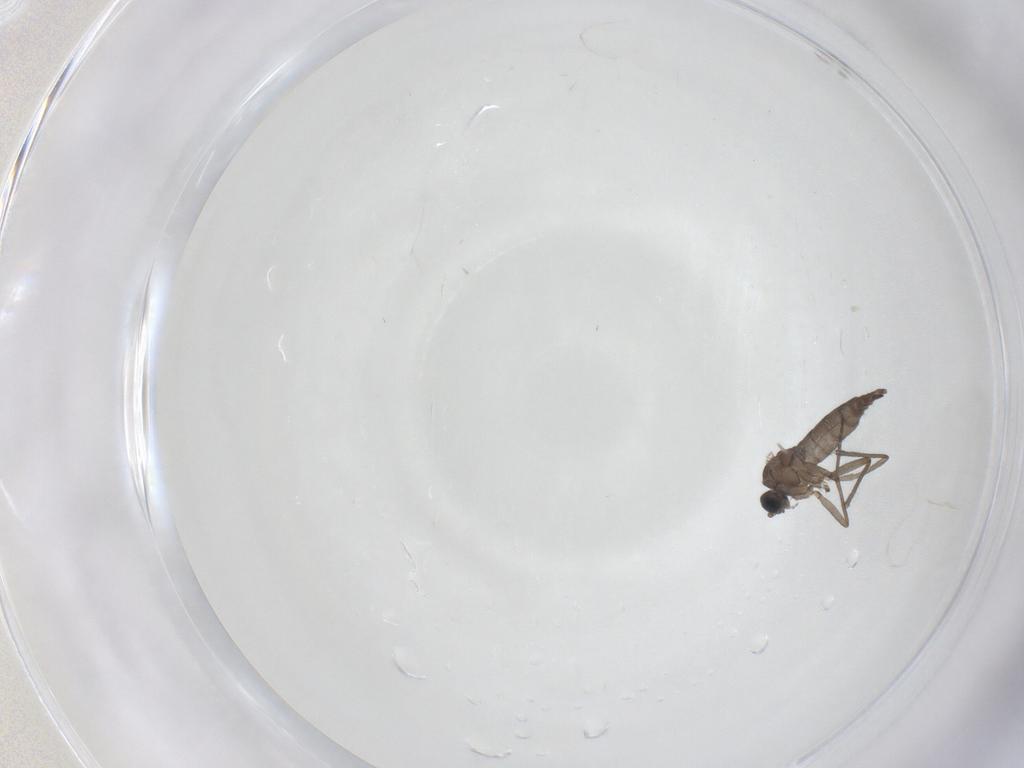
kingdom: Animalia
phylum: Arthropoda
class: Insecta
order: Diptera
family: Sciaridae
